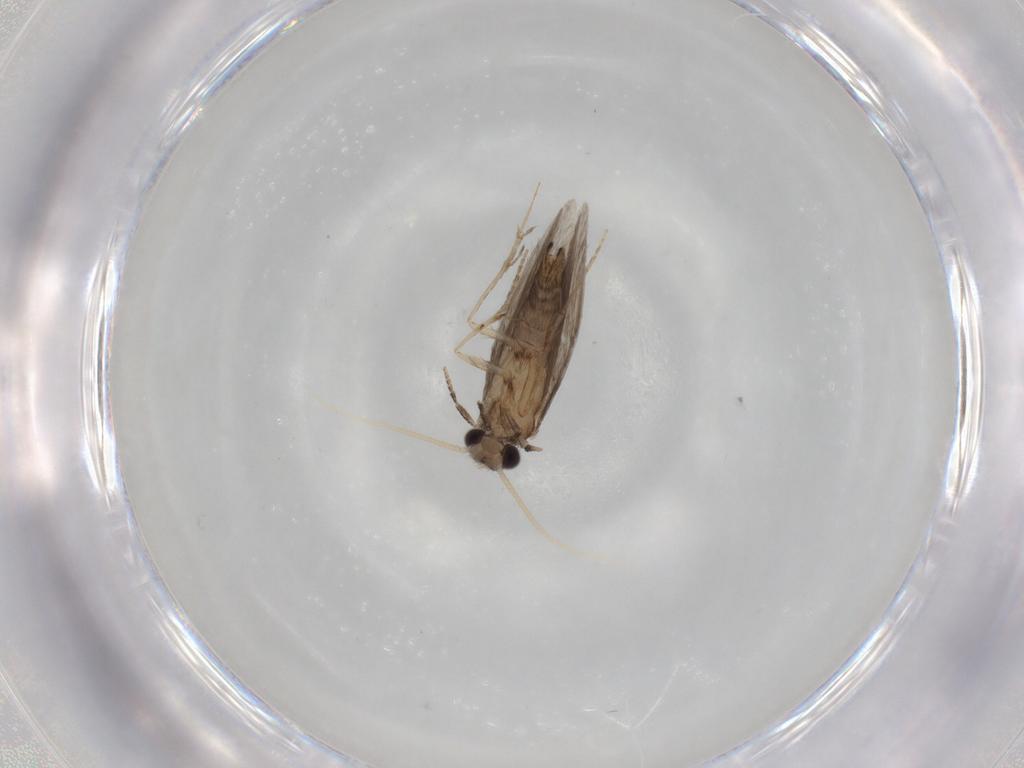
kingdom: Animalia
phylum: Arthropoda
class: Insecta
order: Trichoptera
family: Hydroptilidae
